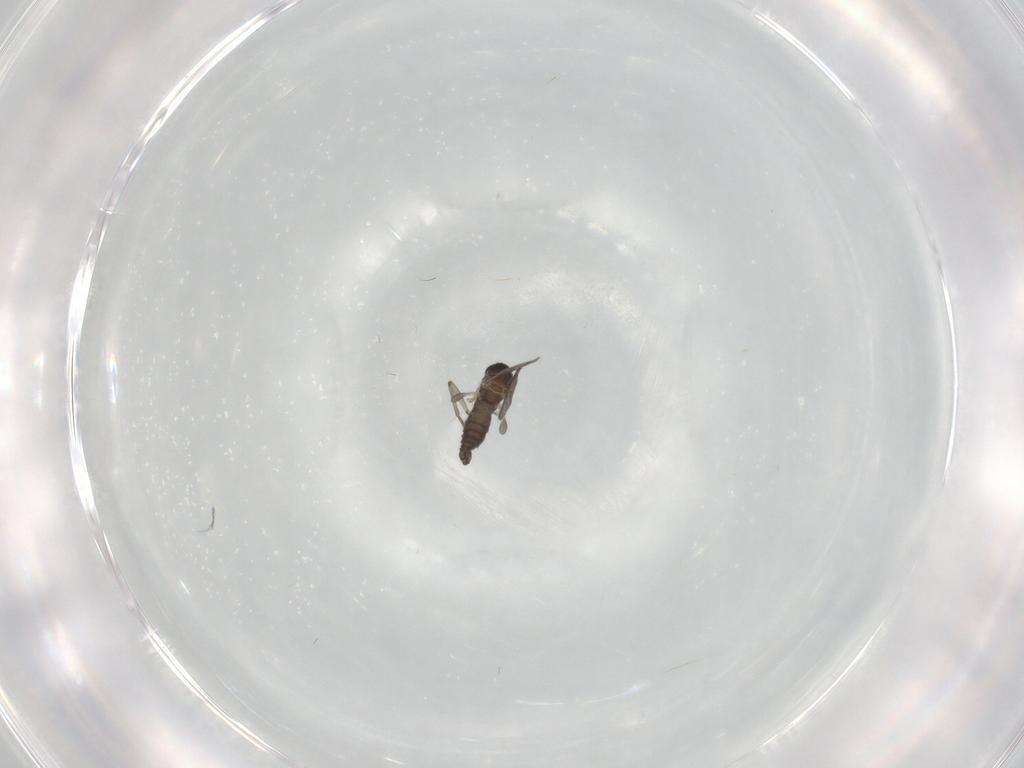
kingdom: Animalia
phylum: Arthropoda
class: Insecta
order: Diptera
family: Sciaridae
